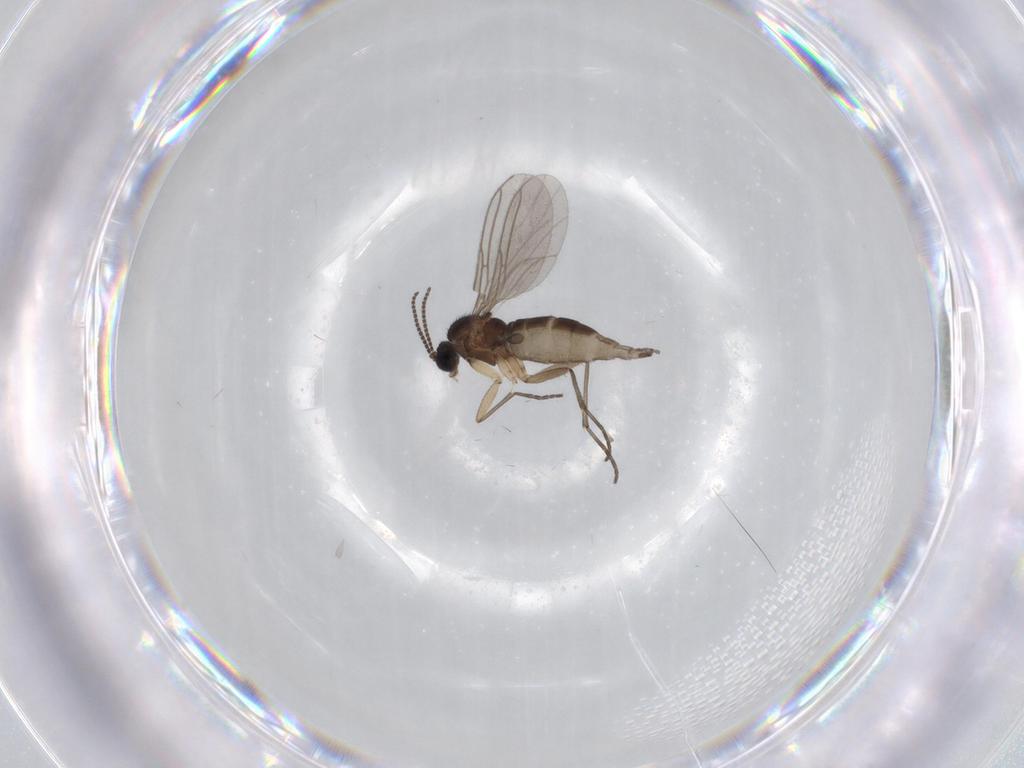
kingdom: Animalia
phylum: Arthropoda
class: Insecta
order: Diptera
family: Sciaridae
